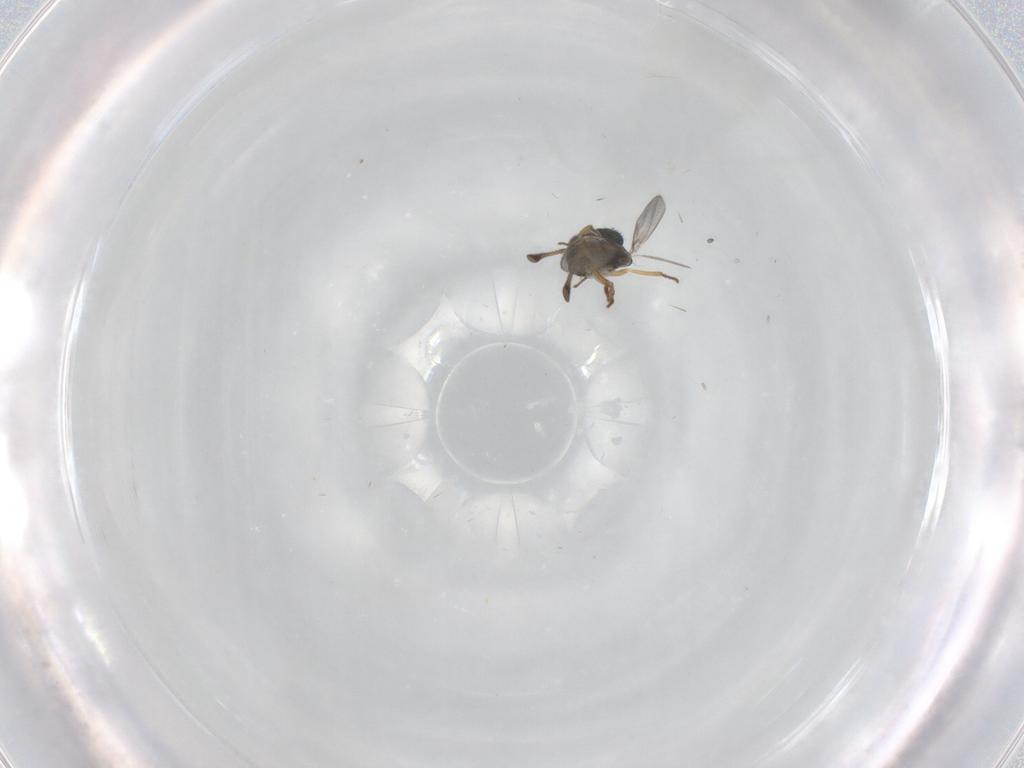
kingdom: Animalia
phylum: Arthropoda
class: Insecta
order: Hymenoptera
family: Encyrtidae
